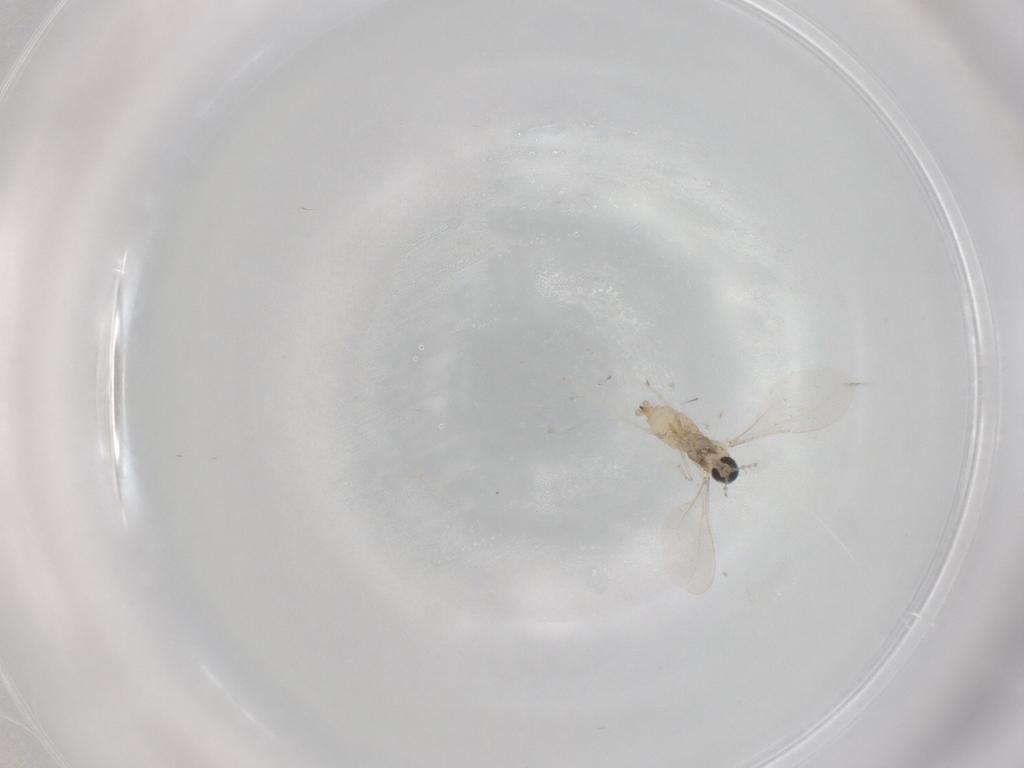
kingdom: Animalia
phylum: Arthropoda
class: Insecta
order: Diptera
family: Cecidomyiidae
